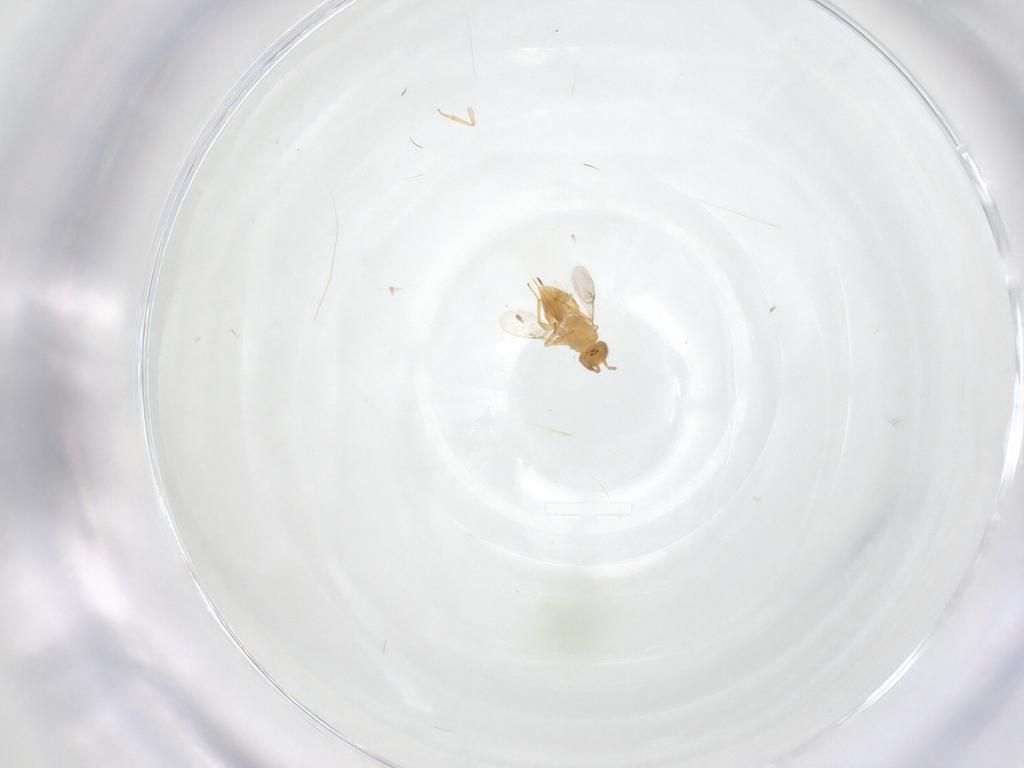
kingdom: Animalia
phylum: Arthropoda
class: Insecta
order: Hymenoptera
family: Encyrtidae
